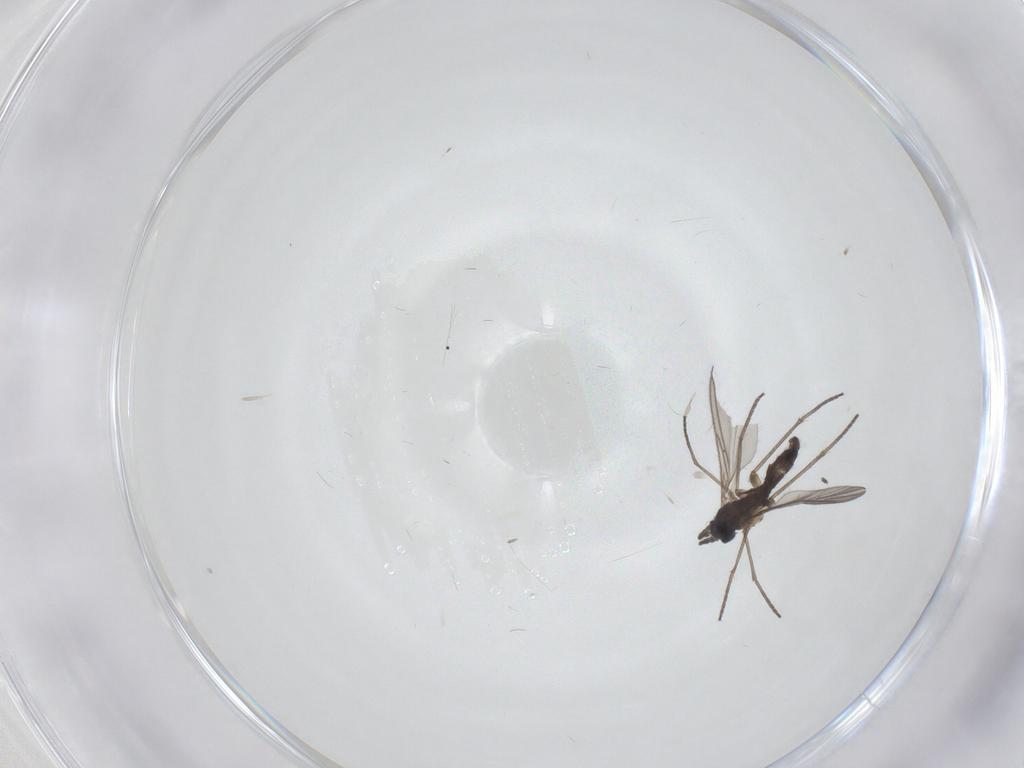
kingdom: Animalia
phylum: Arthropoda
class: Insecta
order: Diptera
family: Sciaridae
